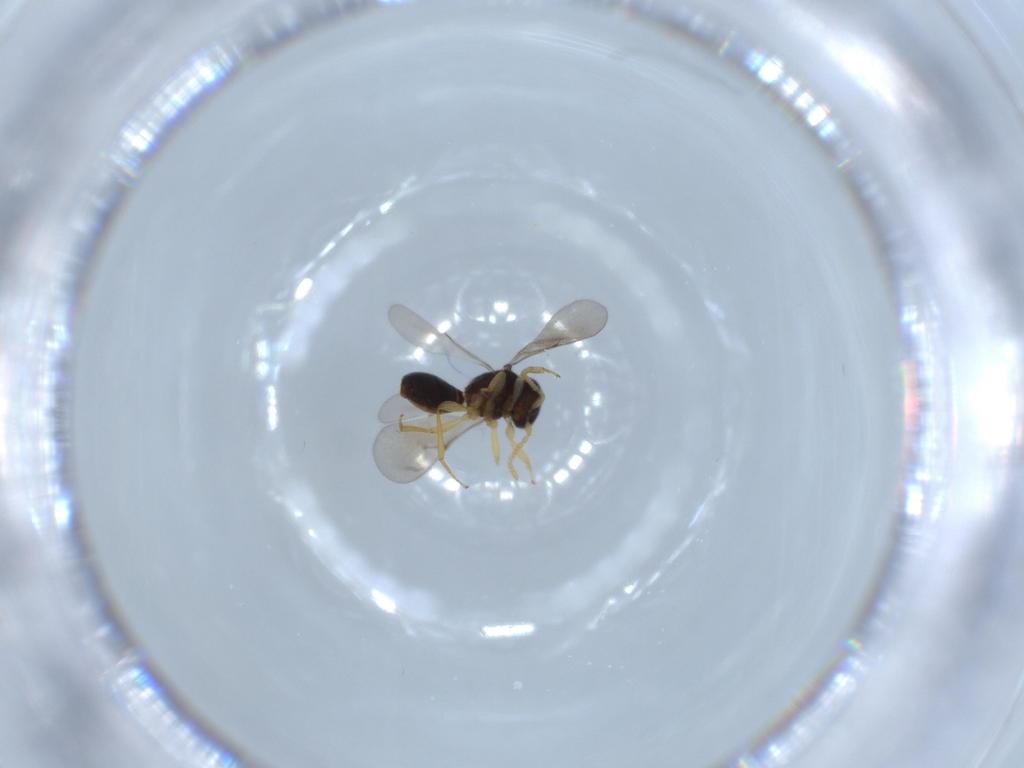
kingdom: Animalia
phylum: Arthropoda
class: Insecta
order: Hymenoptera
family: Scelionidae
